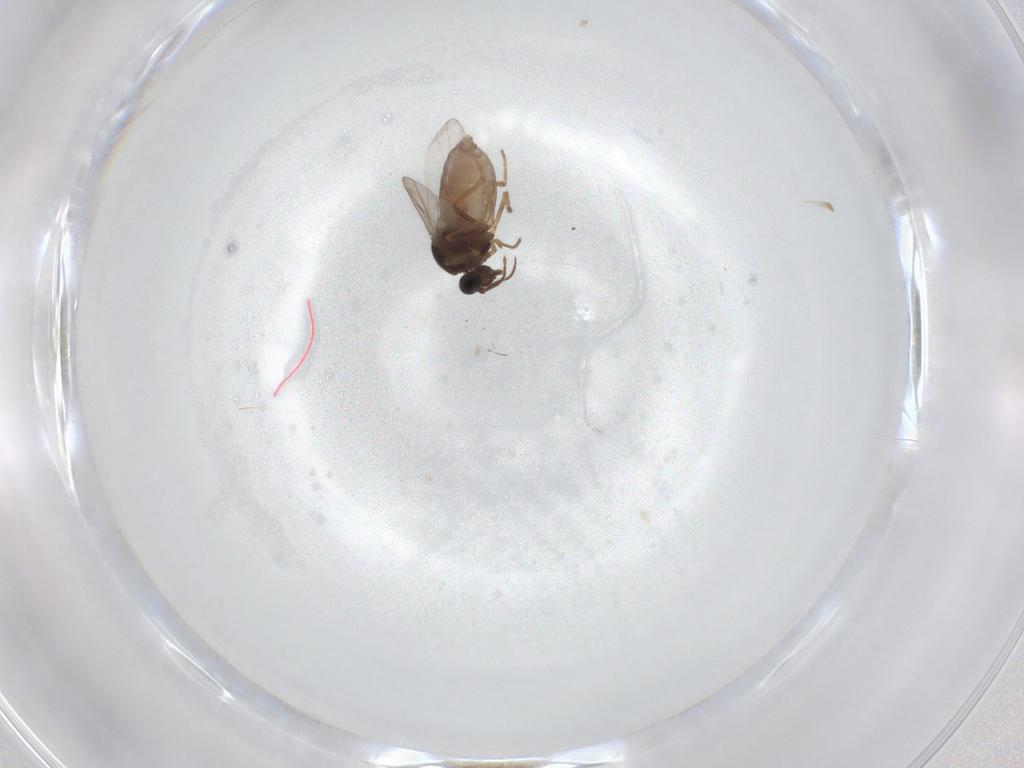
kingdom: Animalia
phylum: Arthropoda
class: Insecta
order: Diptera
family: Ceratopogonidae
